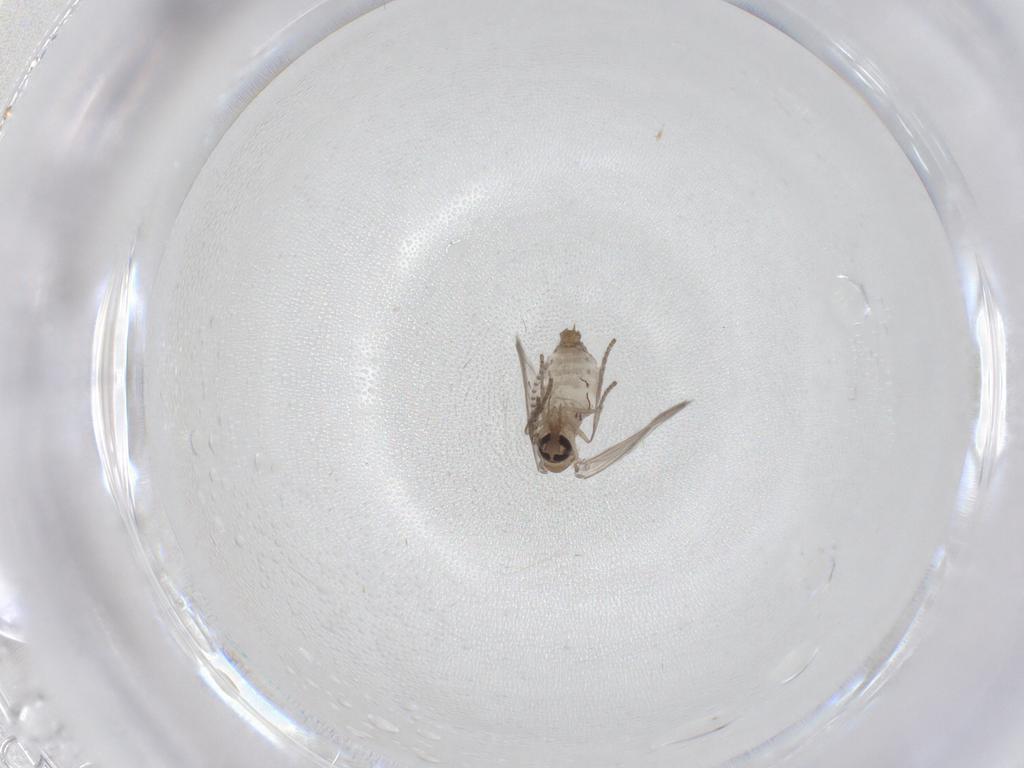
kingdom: Animalia
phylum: Arthropoda
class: Insecta
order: Diptera
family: Psychodidae
